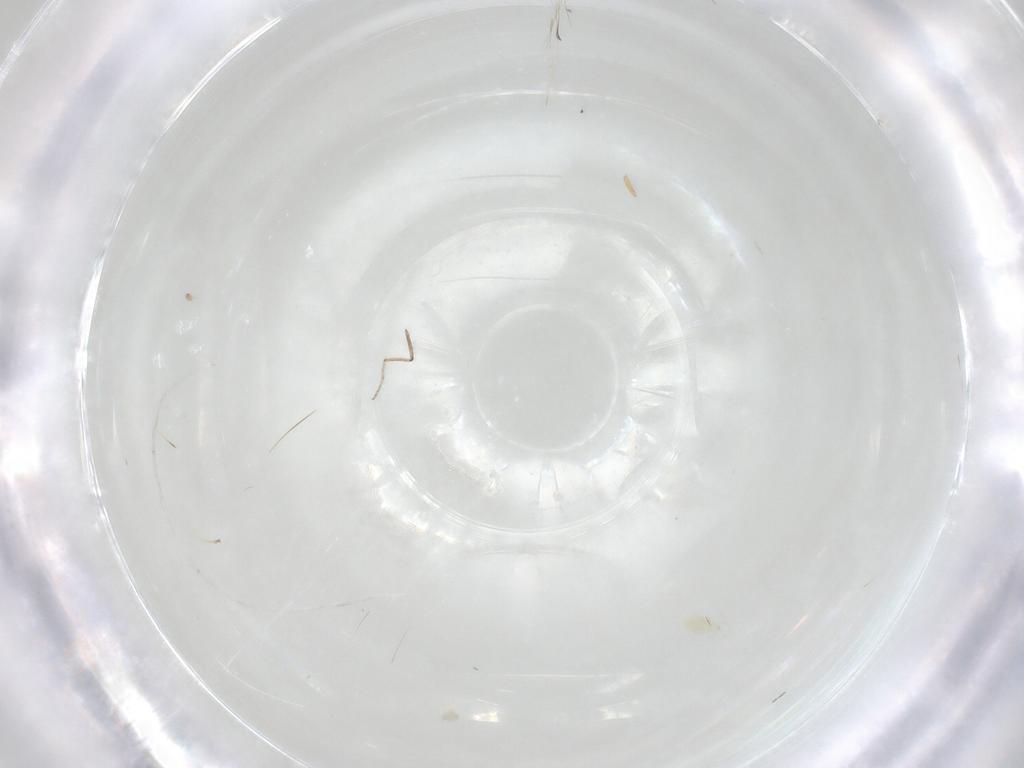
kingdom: Animalia
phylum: Arthropoda
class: Arachnida
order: Trombidiformes
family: Eupodidae
